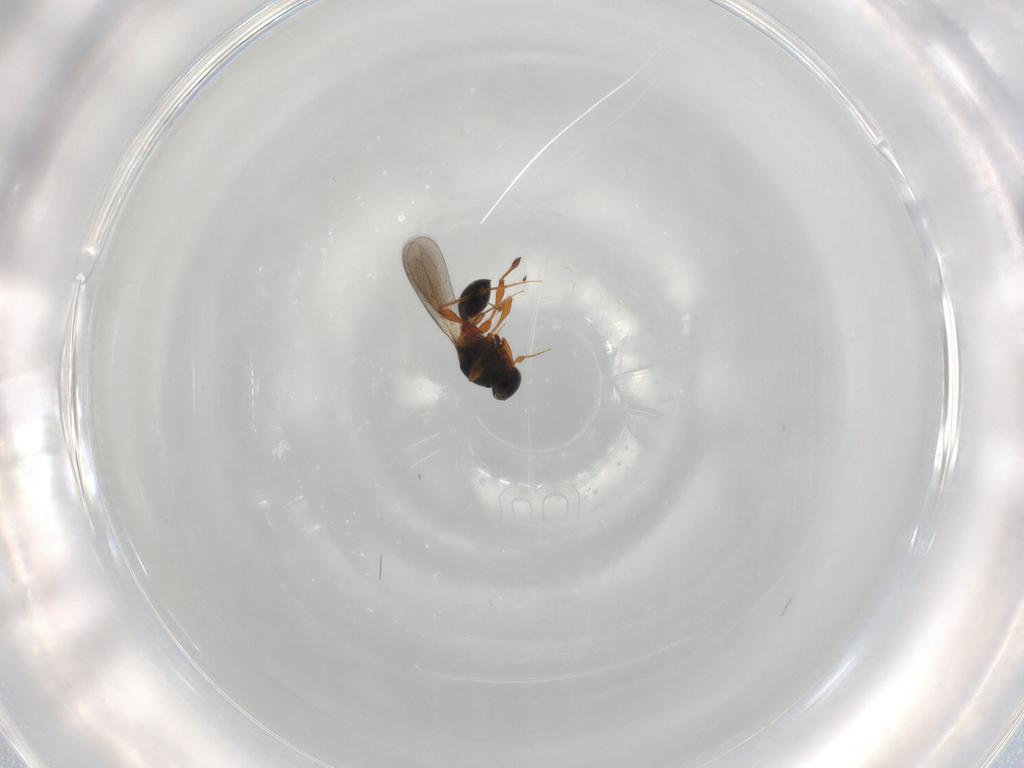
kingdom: Animalia
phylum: Arthropoda
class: Insecta
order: Hymenoptera
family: Platygastridae
